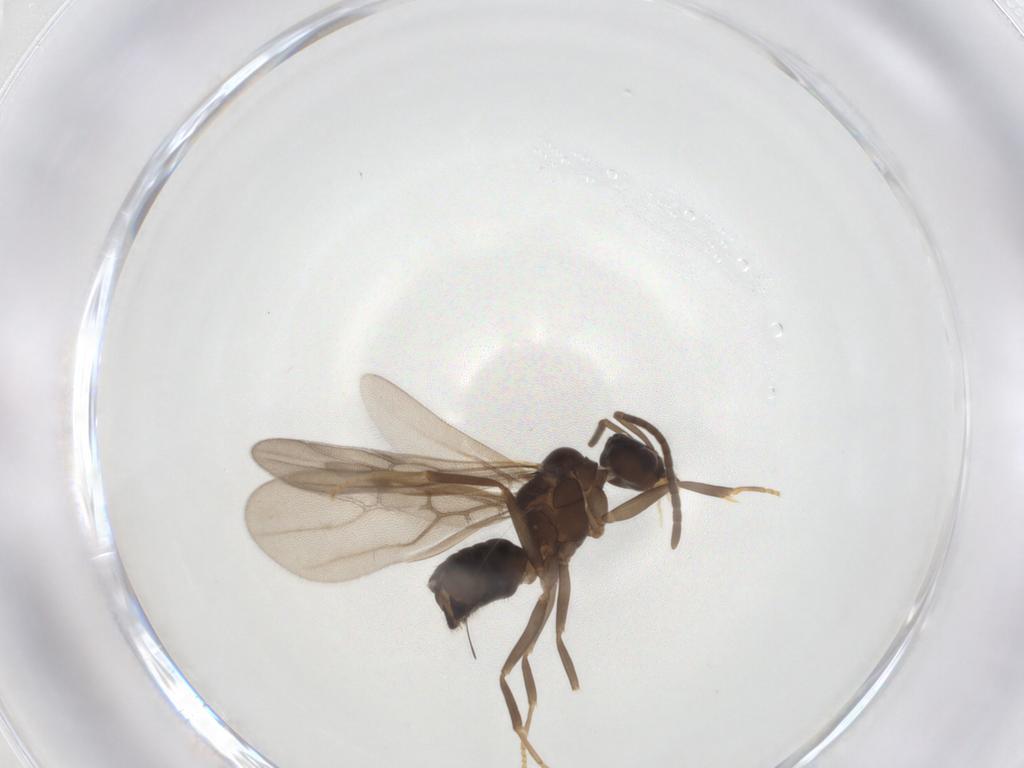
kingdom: Animalia
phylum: Arthropoda
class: Insecta
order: Hymenoptera
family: Formicidae
